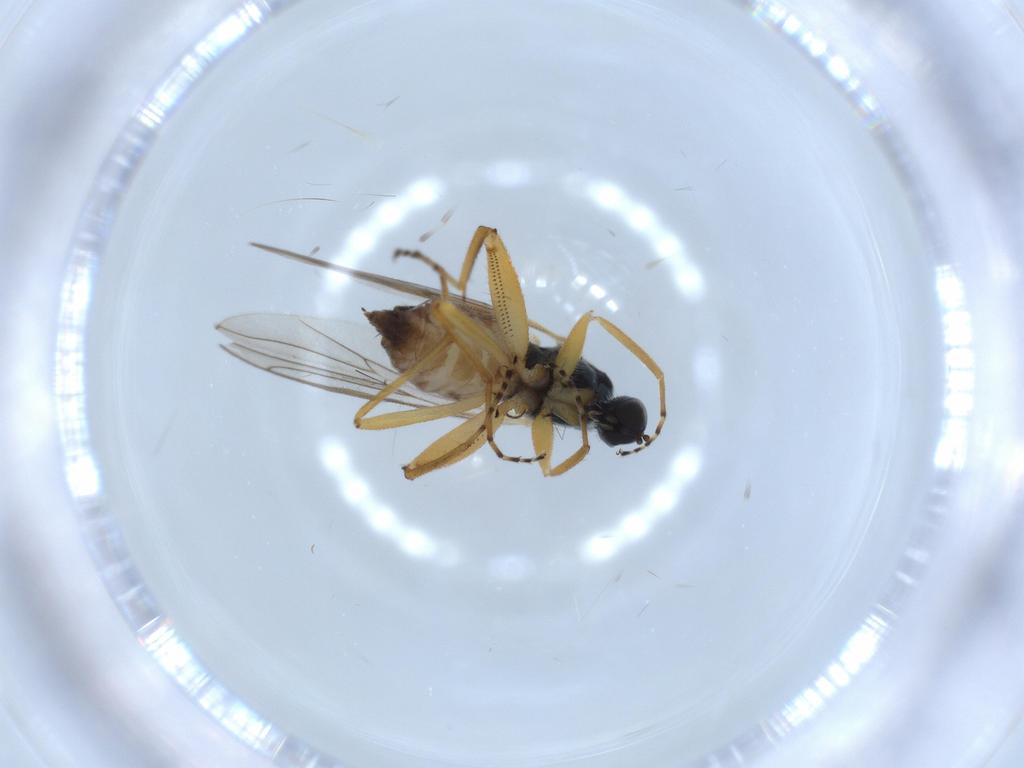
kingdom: Animalia
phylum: Arthropoda
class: Insecta
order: Diptera
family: Hybotidae
